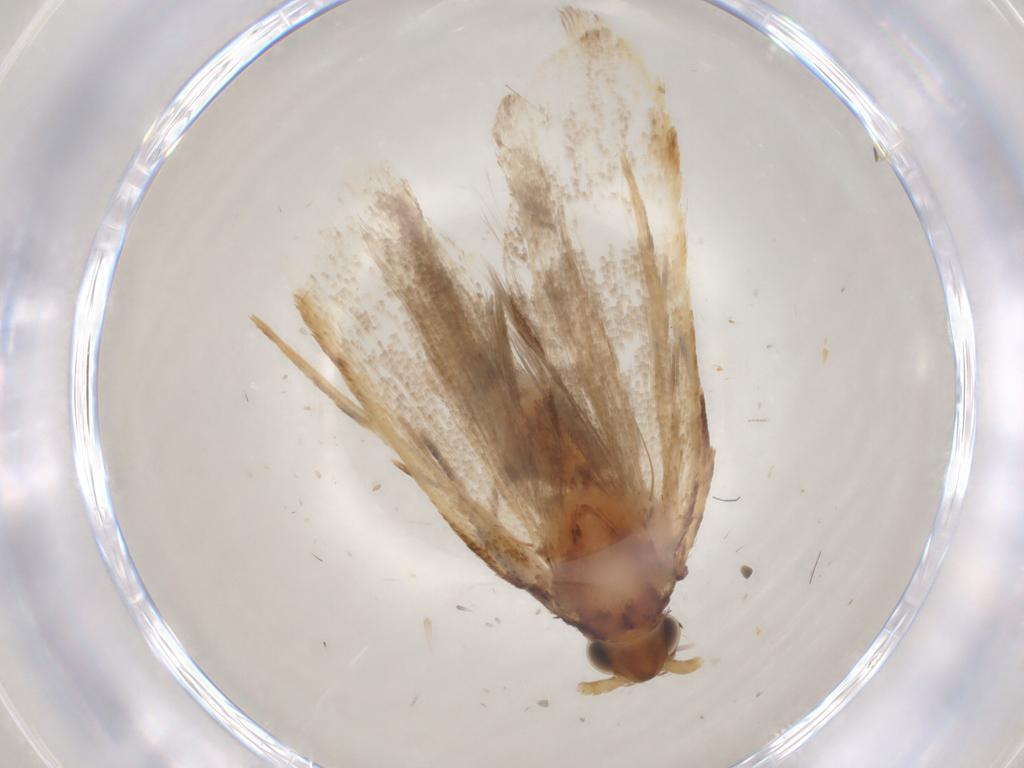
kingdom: Animalia
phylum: Arthropoda
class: Insecta
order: Lepidoptera
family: Lecithoceridae
